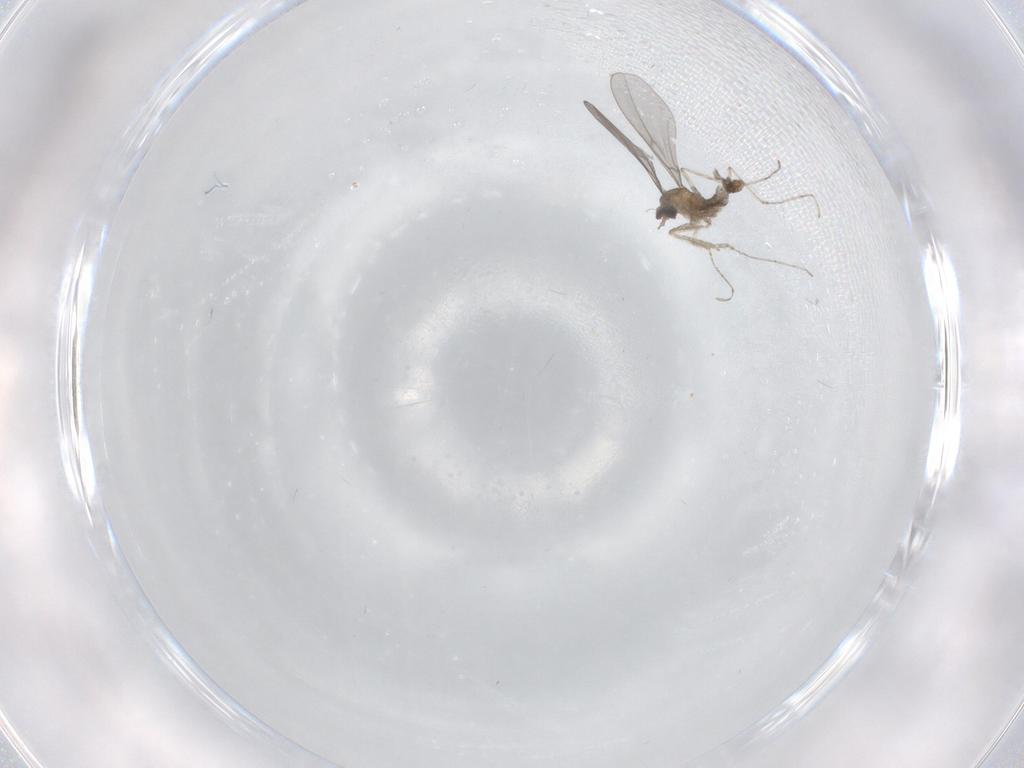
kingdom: Animalia
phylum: Arthropoda
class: Insecta
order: Diptera
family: Cecidomyiidae
